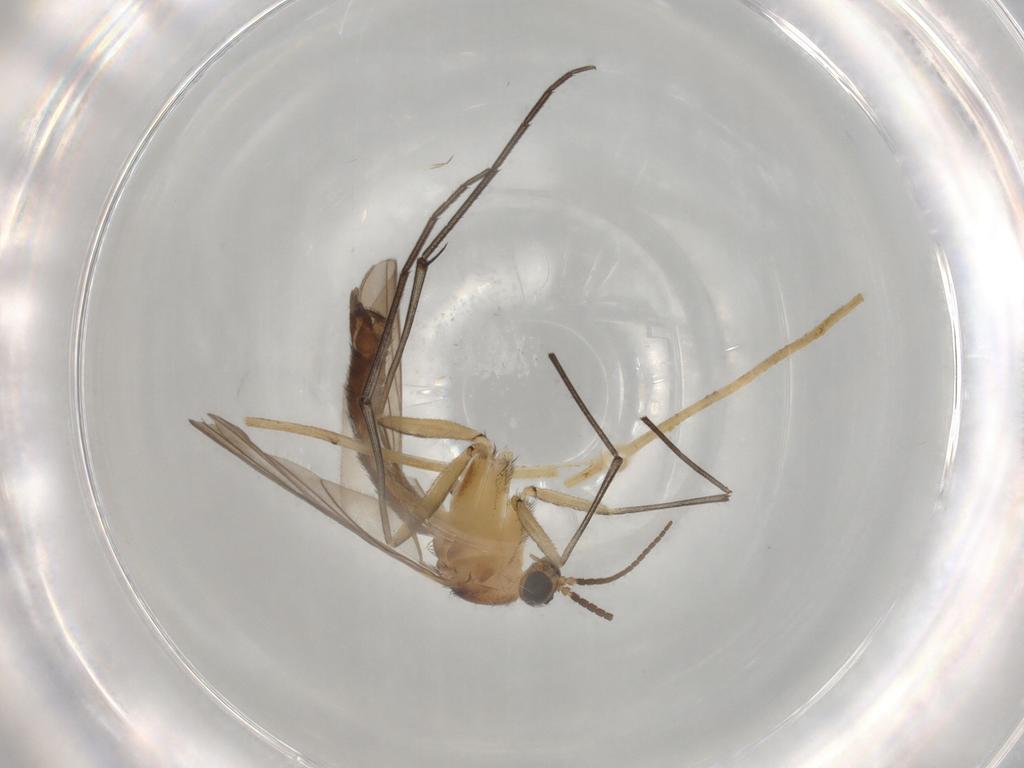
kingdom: Animalia
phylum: Arthropoda
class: Insecta
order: Diptera
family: Keroplatidae
